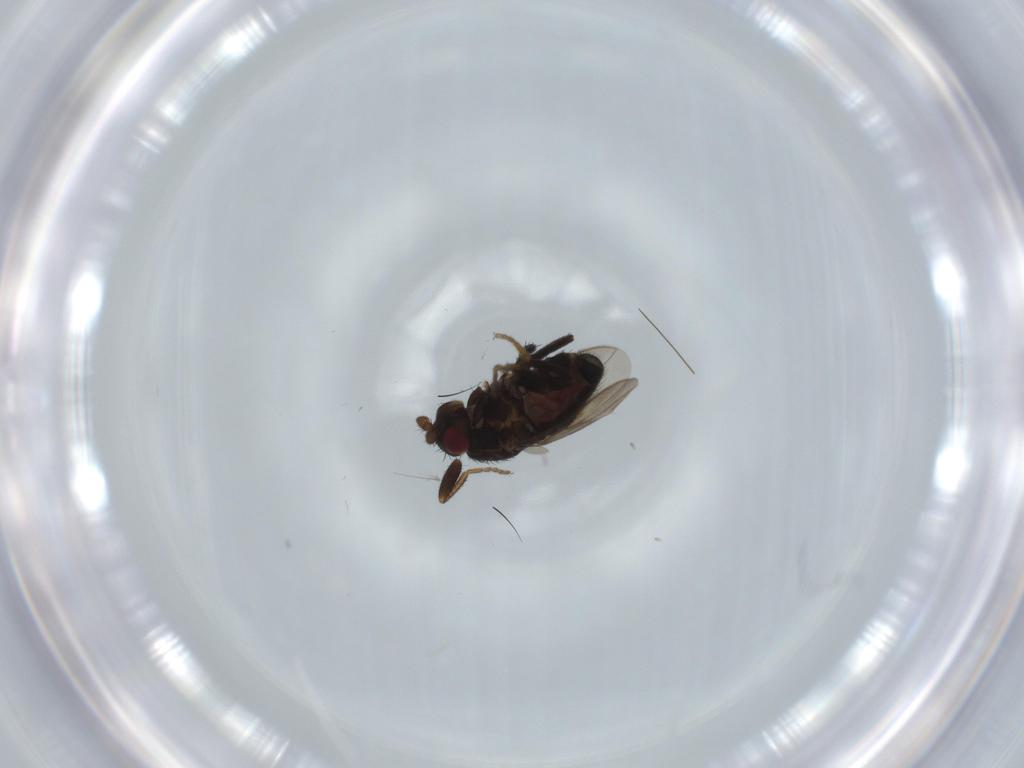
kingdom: Animalia
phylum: Arthropoda
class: Insecta
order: Diptera
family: Sphaeroceridae
